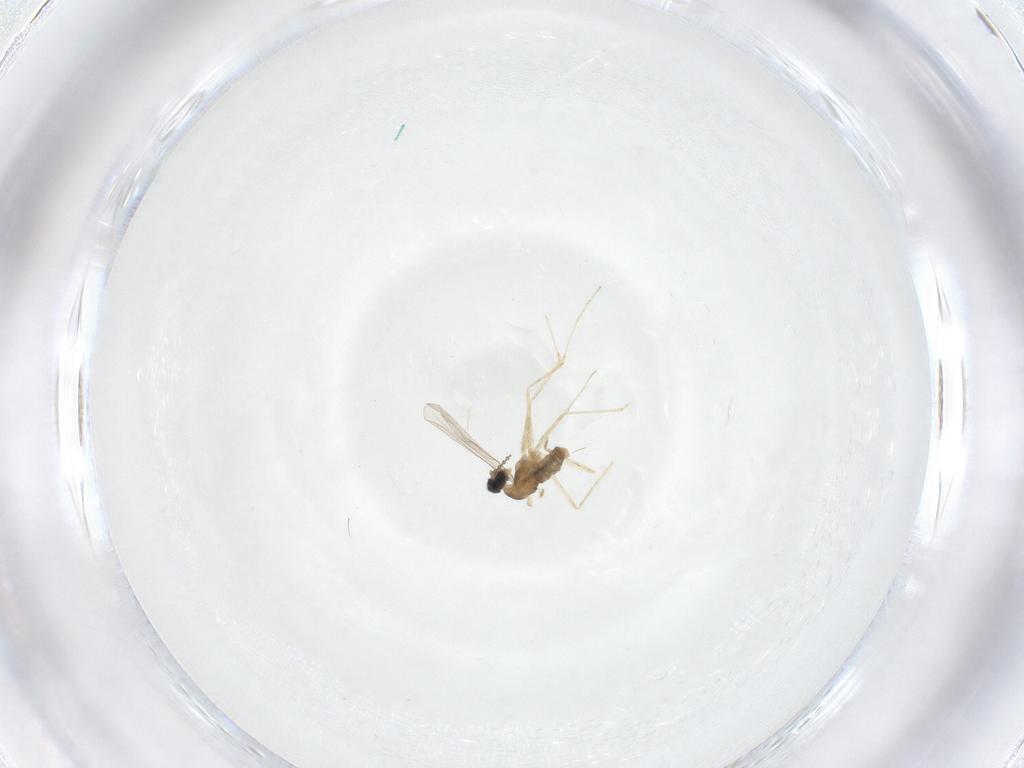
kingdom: Animalia
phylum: Arthropoda
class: Insecta
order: Diptera
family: Cecidomyiidae
